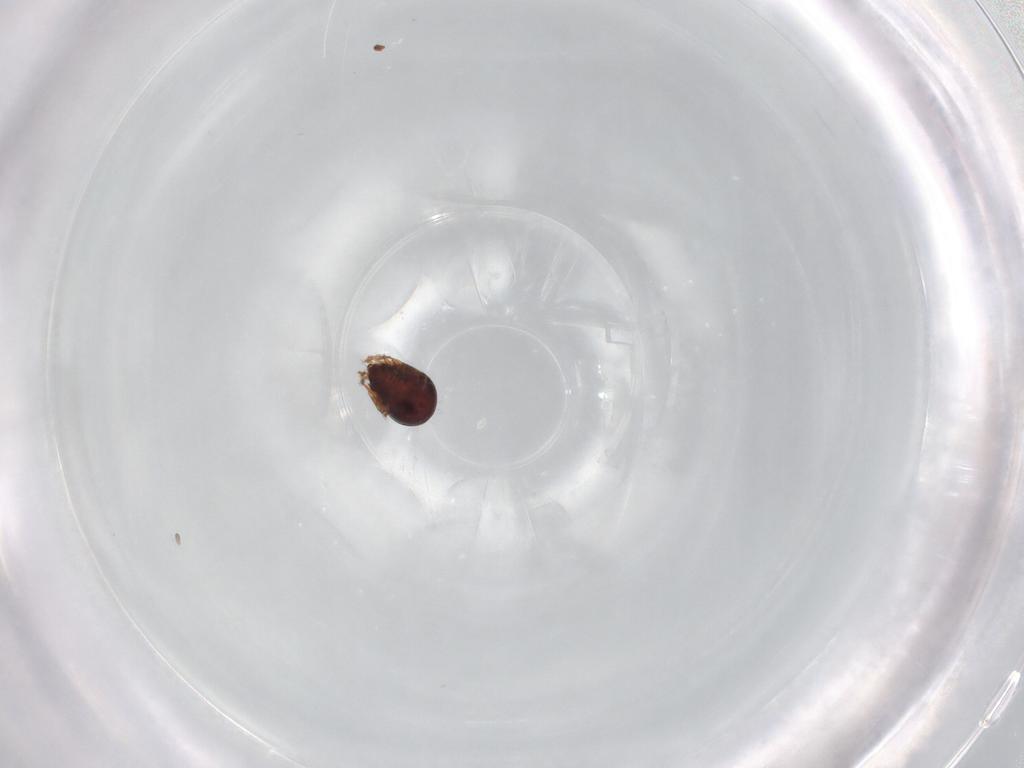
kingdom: Animalia
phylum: Arthropoda
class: Arachnida
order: Sarcoptiformes
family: Humerobatidae
